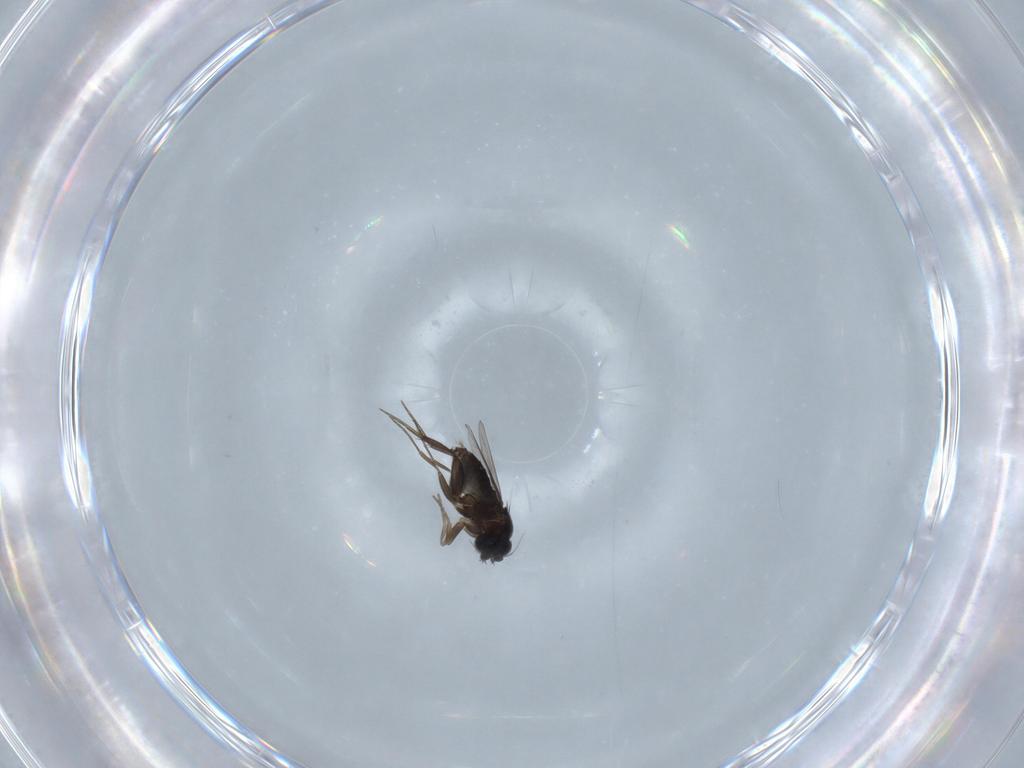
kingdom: Animalia
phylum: Arthropoda
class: Insecta
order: Diptera
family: Phoridae
